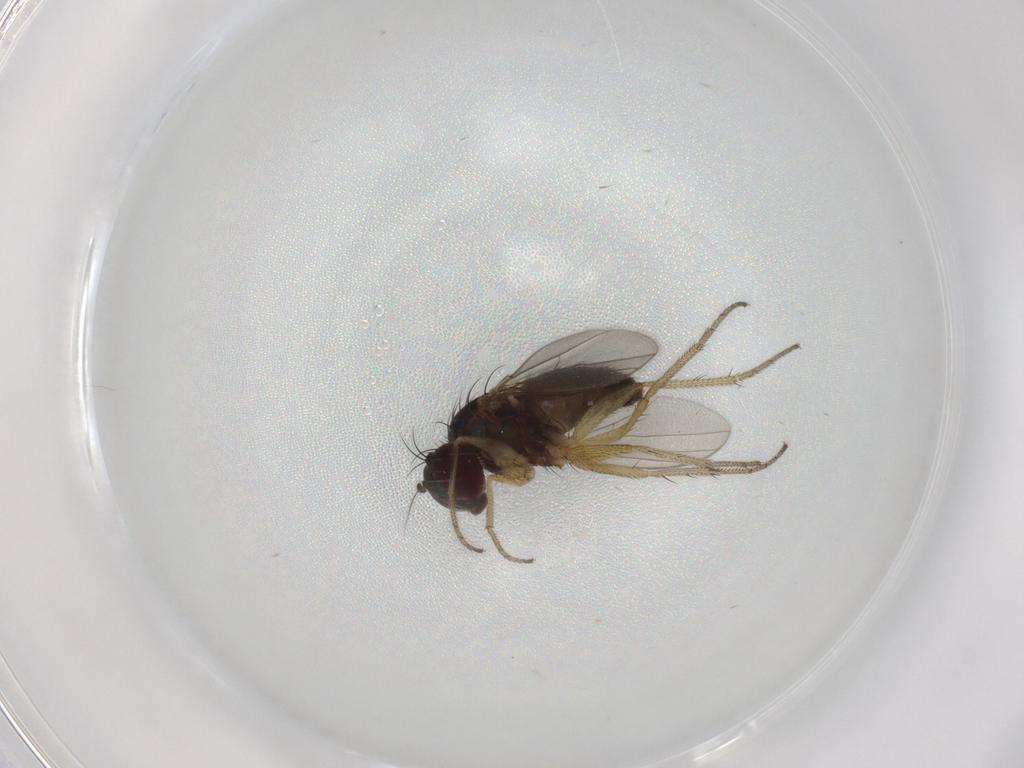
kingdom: Animalia
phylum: Arthropoda
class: Insecta
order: Diptera
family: Dolichopodidae
